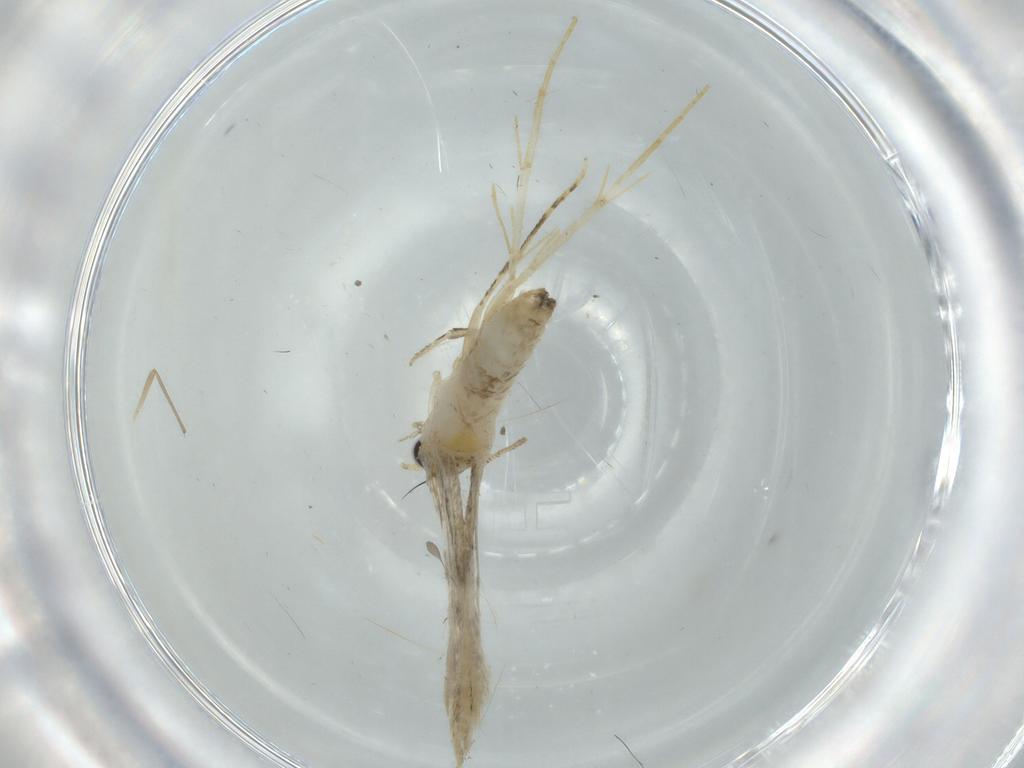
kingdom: Animalia
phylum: Arthropoda
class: Insecta
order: Lepidoptera
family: Tineidae
